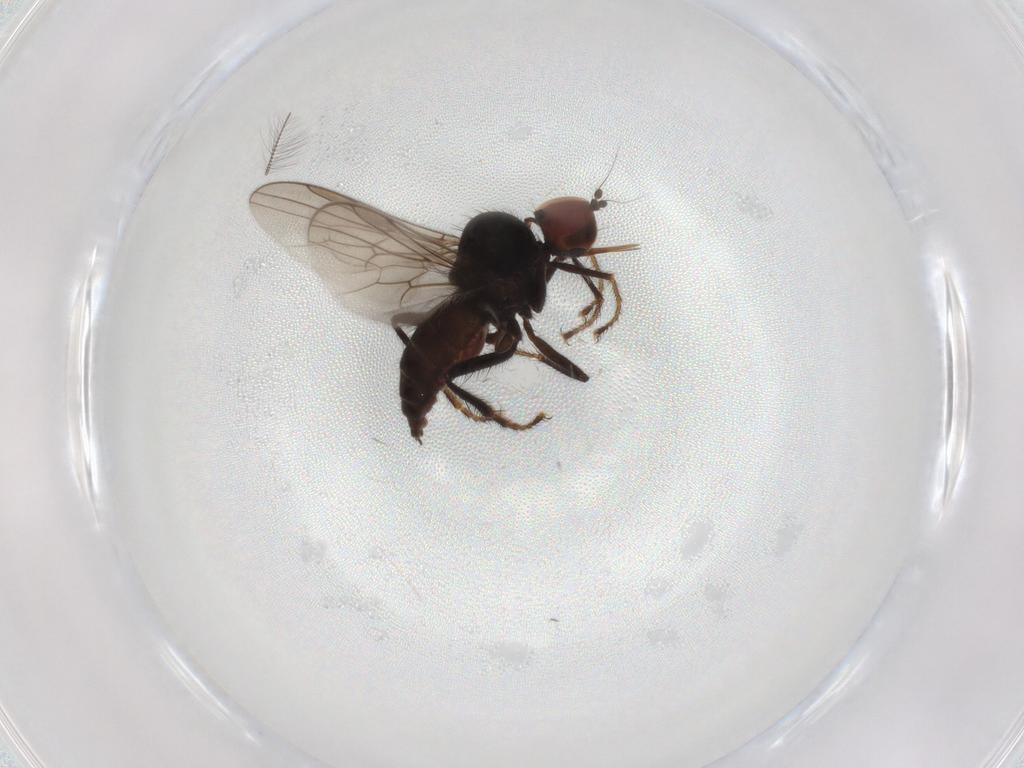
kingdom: Animalia
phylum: Arthropoda
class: Insecta
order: Diptera
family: Hybotidae
